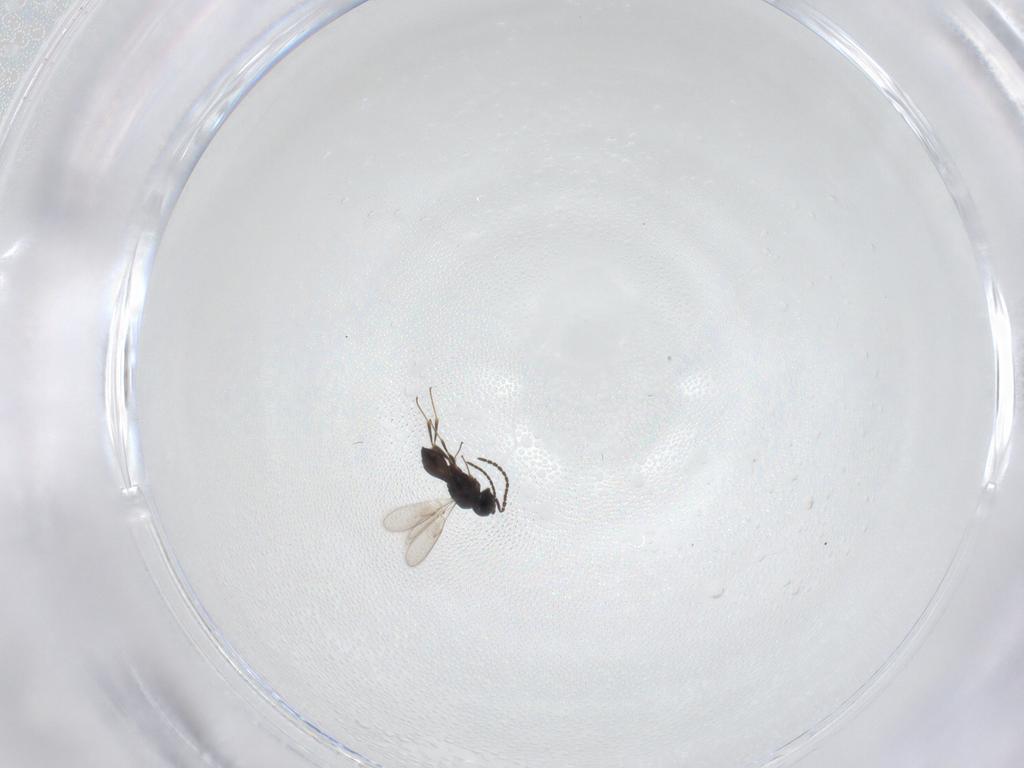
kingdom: Animalia
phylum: Arthropoda
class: Insecta
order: Hymenoptera
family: Scelionidae
